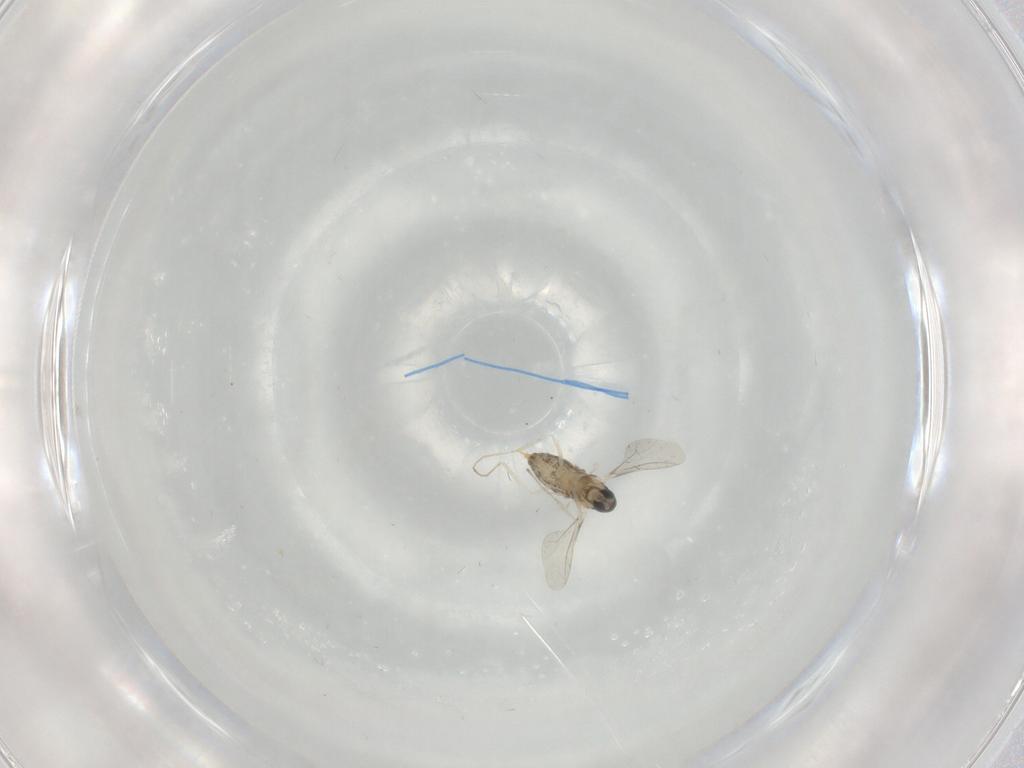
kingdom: Animalia
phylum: Arthropoda
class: Insecta
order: Diptera
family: Cecidomyiidae
